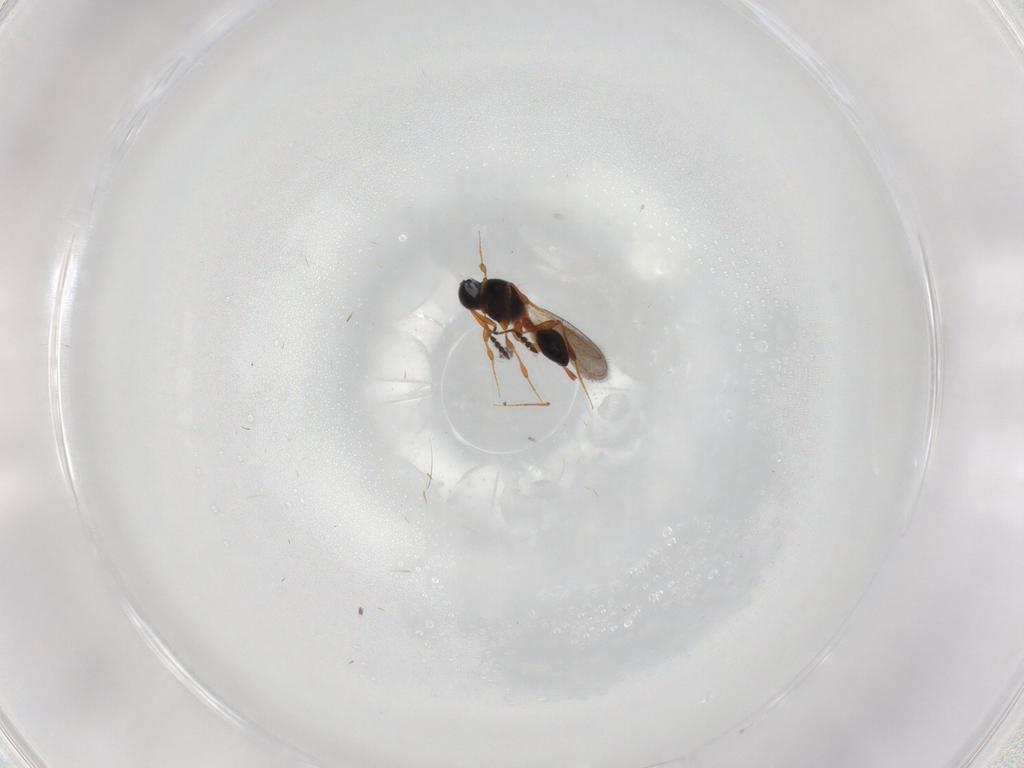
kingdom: Animalia
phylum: Arthropoda
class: Insecta
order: Hymenoptera
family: Platygastridae
